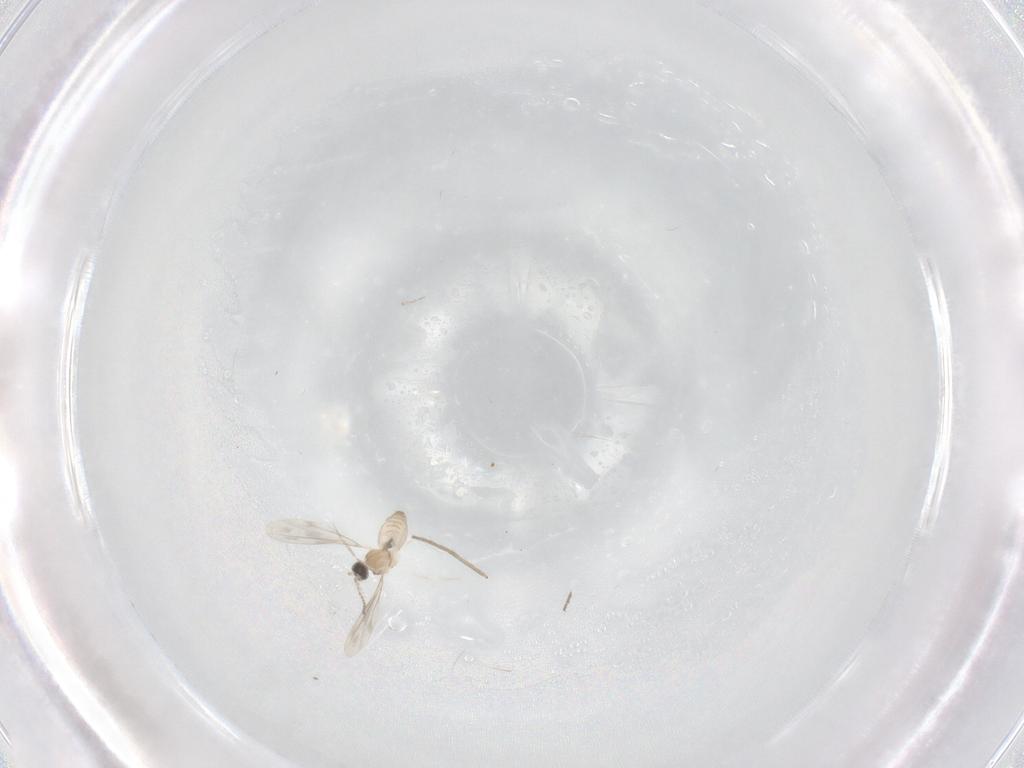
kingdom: Animalia
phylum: Arthropoda
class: Insecta
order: Diptera
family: Cecidomyiidae
